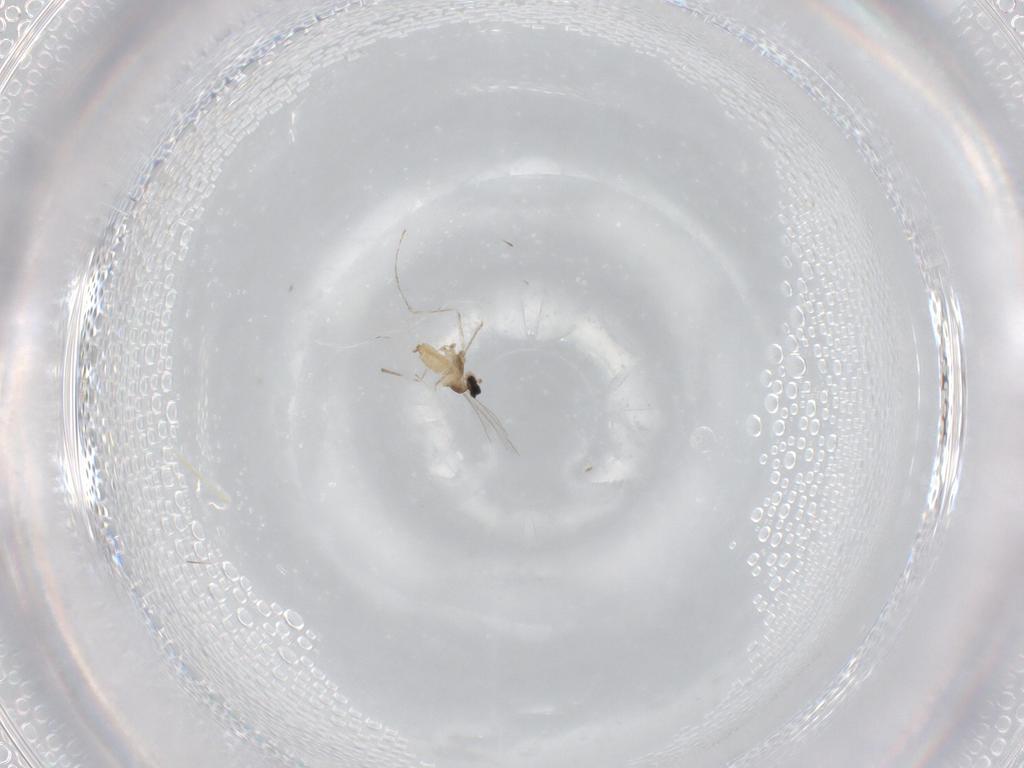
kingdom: Animalia
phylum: Arthropoda
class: Insecta
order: Diptera
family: Cecidomyiidae
